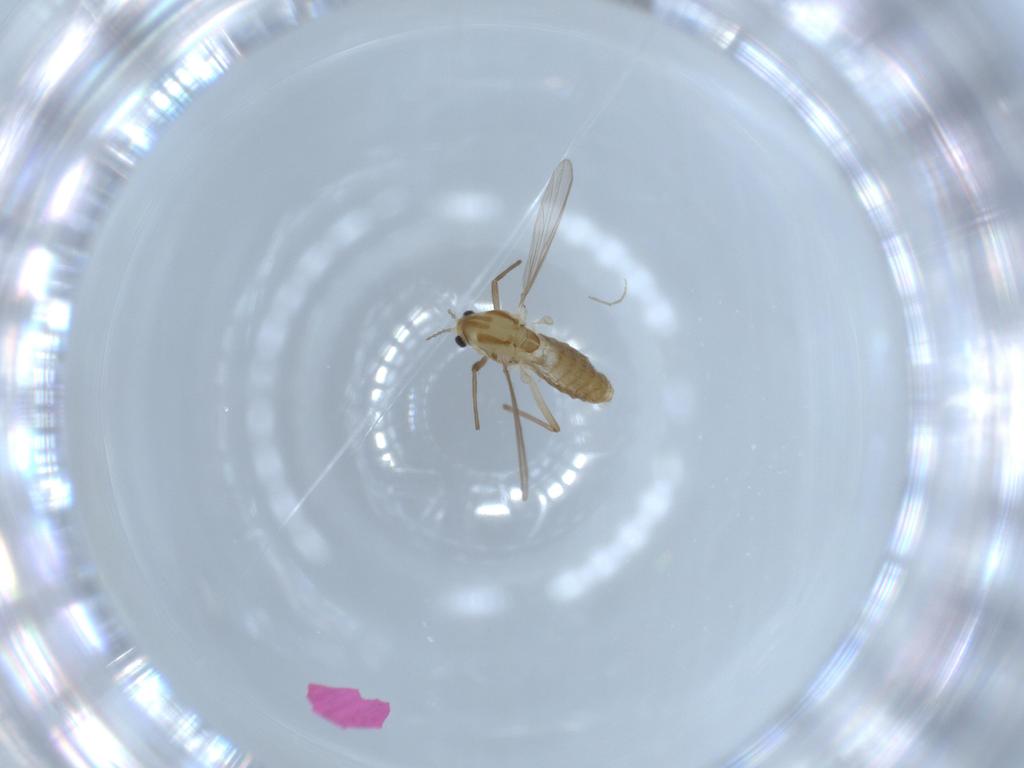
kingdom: Animalia
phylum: Arthropoda
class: Insecta
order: Diptera
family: Chironomidae
